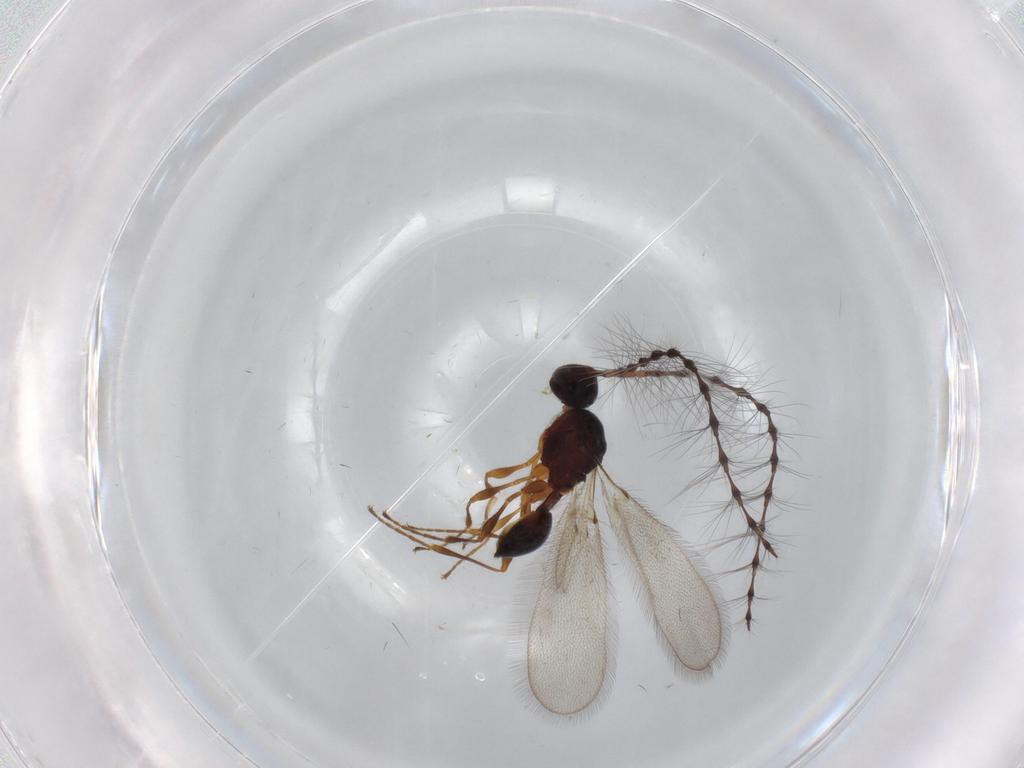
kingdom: Animalia
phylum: Arthropoda
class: Insecta
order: Hymenoptera
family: Diapriidae
